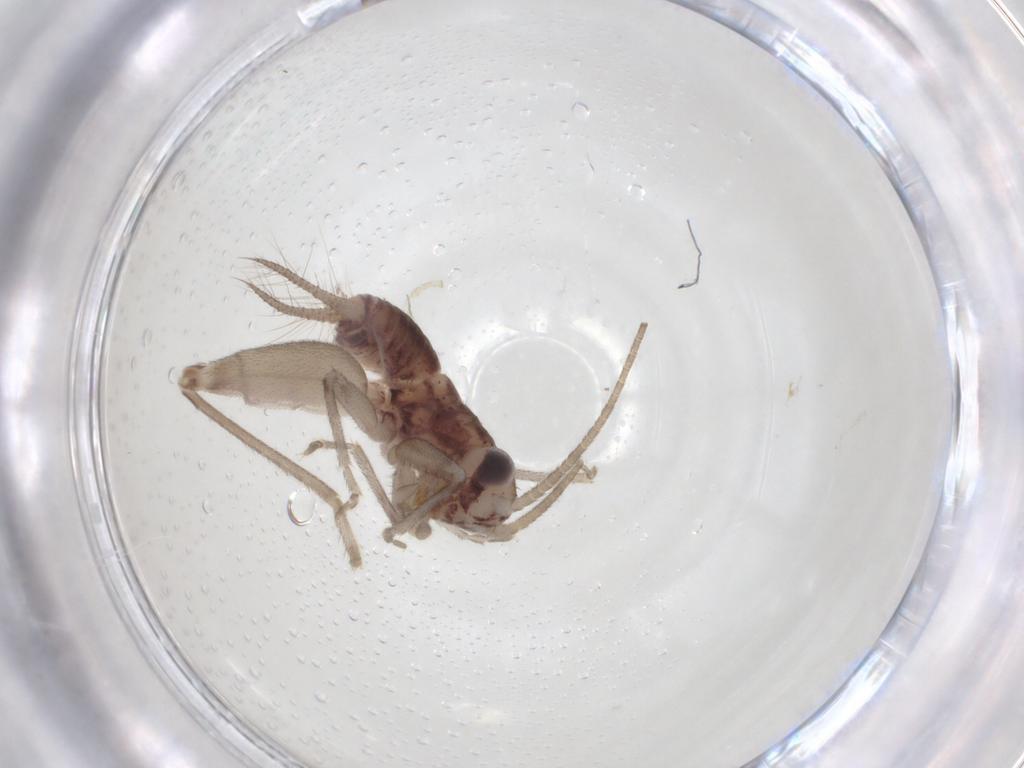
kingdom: Animalia
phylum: Arthropoda
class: Insecta
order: Orthoptera
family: Trigonidiidae
